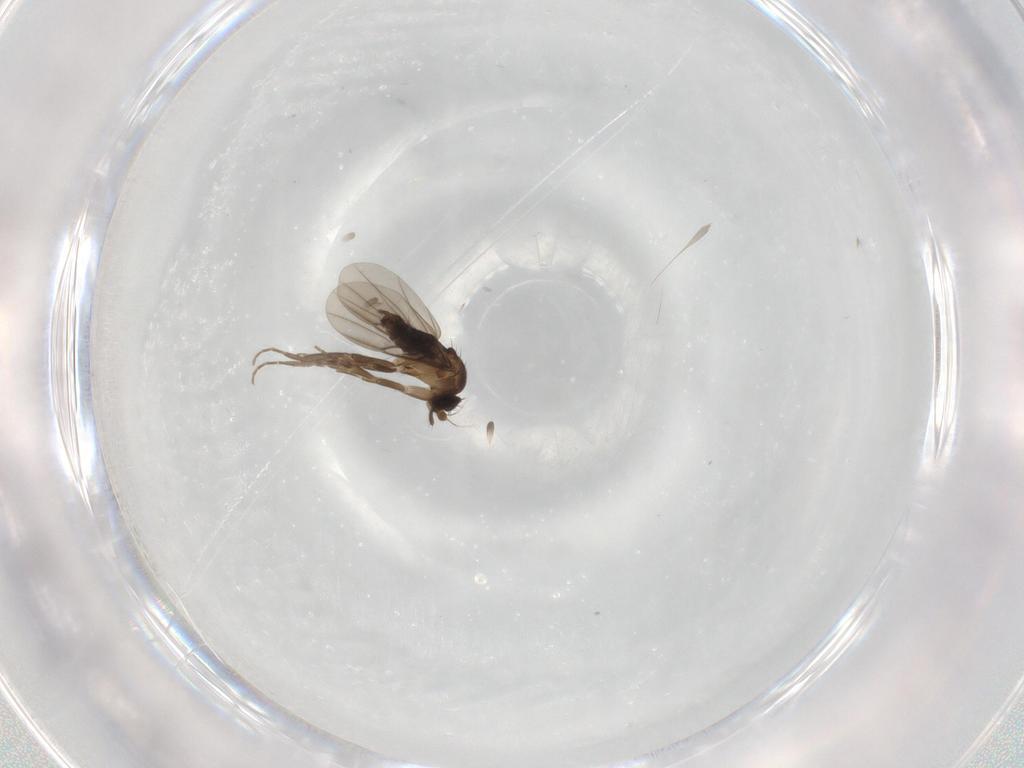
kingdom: Animalia
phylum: Arthropoda
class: Insecta
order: Diptera
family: Phoridae
